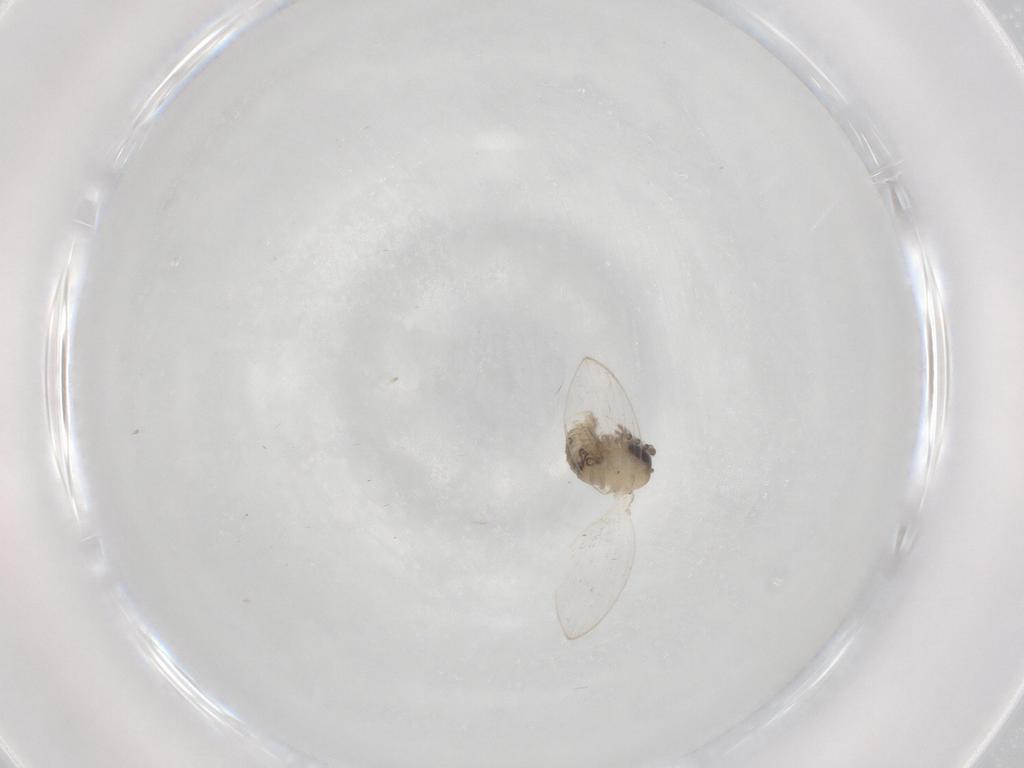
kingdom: Animalia
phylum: Arthropoda
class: Insecta
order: Diptera
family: Psychodidae
